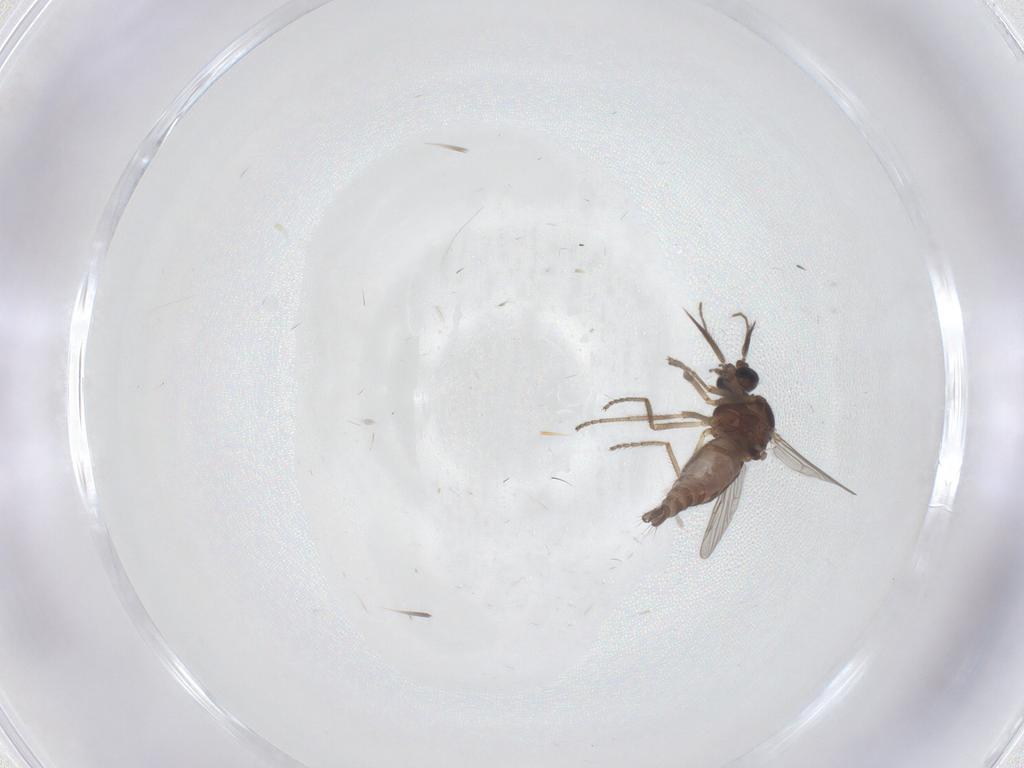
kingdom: Animalia
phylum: Arthropoda
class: Insecta
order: Diptera
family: Ceratopogonidae
